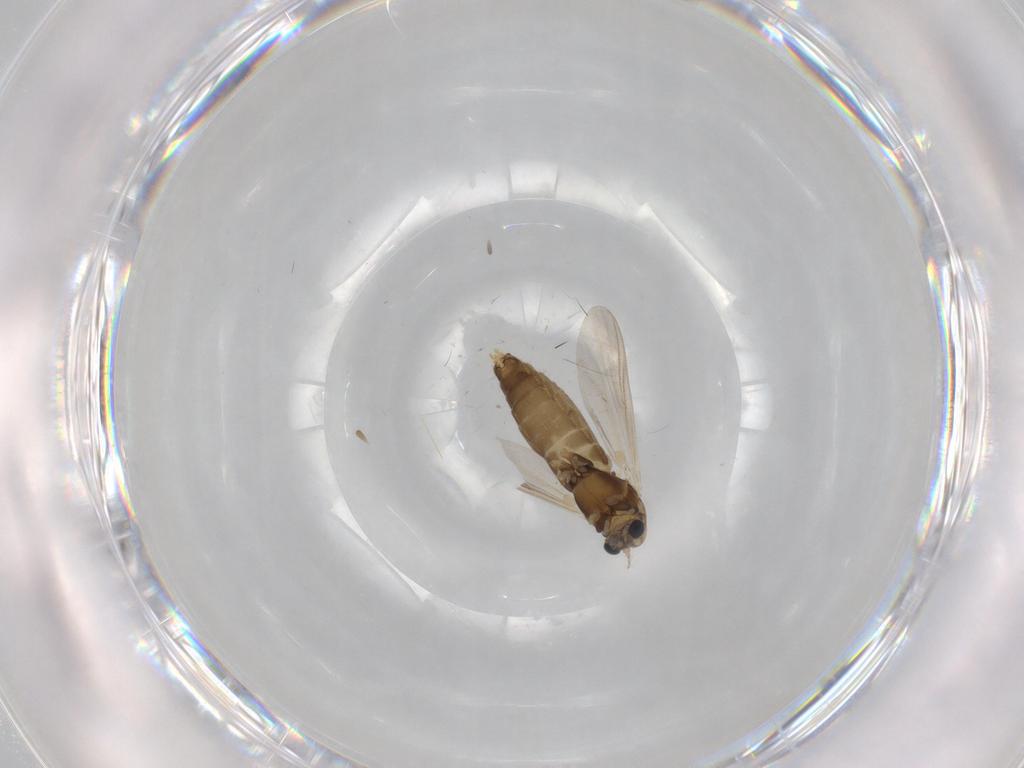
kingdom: Animalia
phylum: Arthropoda
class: Insecta
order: Diptera
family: Chironomidae
